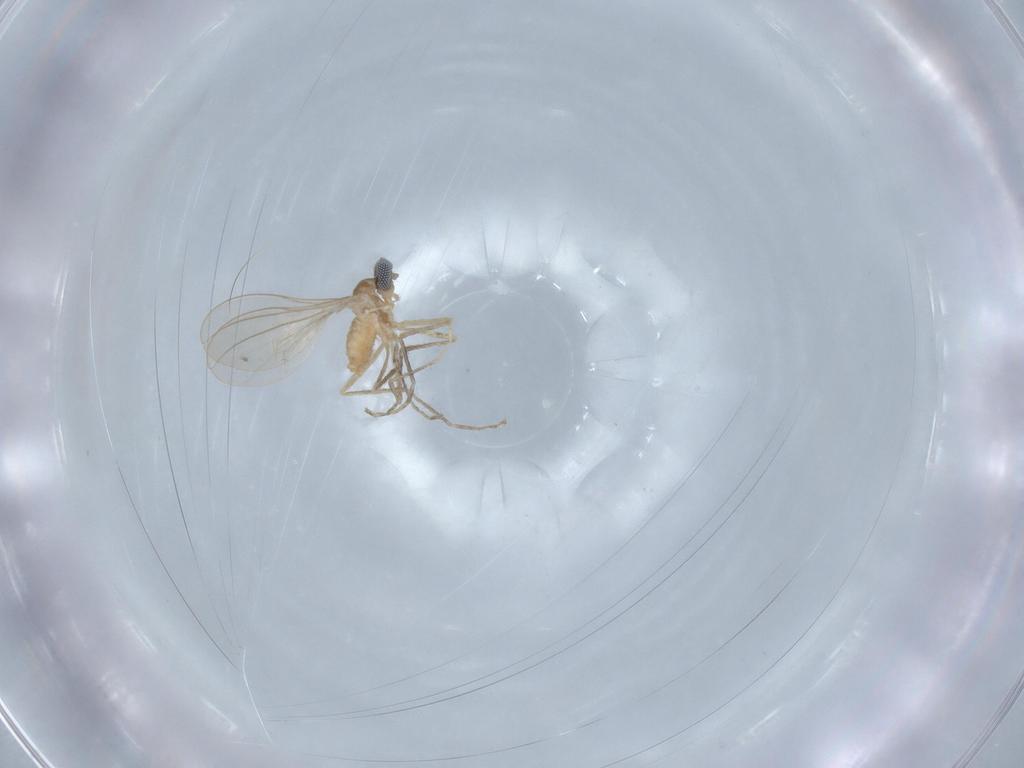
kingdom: Animalia
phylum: Arthropoda
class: Insecta
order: Diptera
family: Cecidomyiidae
